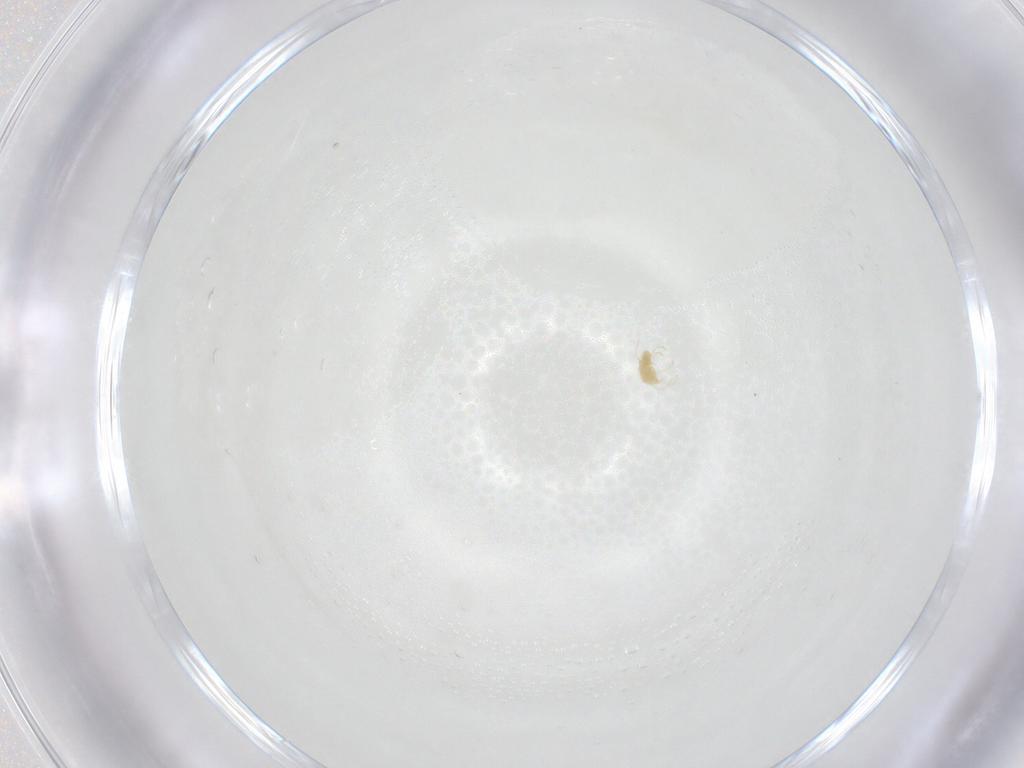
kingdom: Animalia
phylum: Arthropoda
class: Arachnida
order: Trombidiformes
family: Tetranychidae
